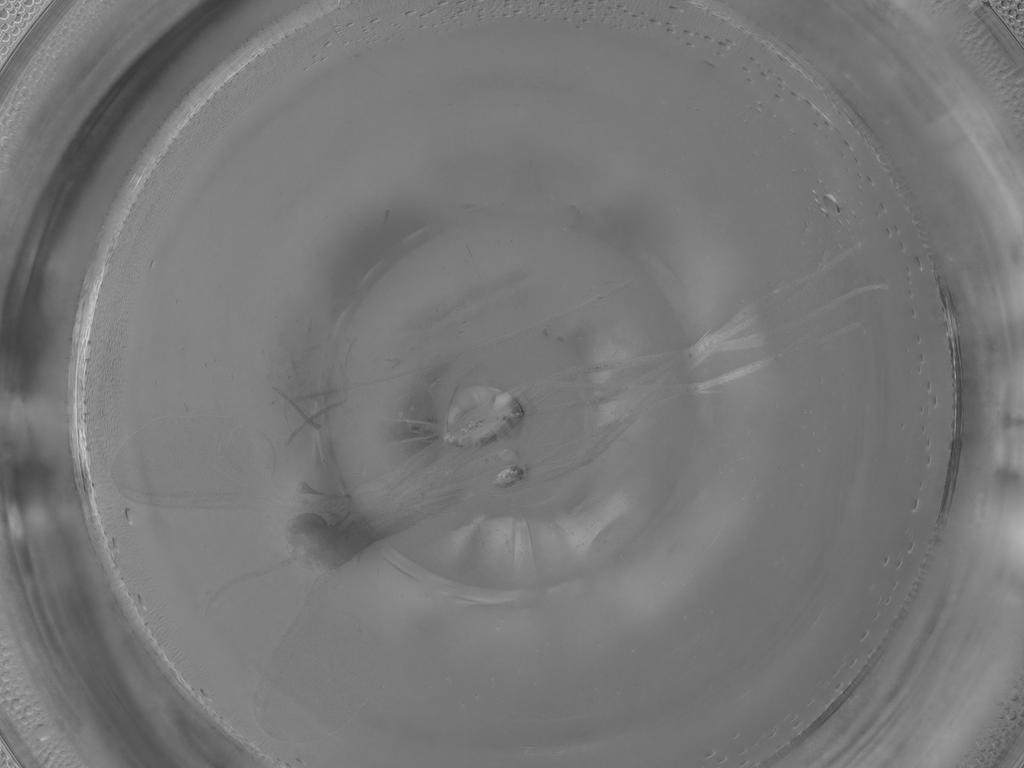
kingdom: Animalia
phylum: Arthropoda
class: Insecta
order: Diptera
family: Sciaridae
